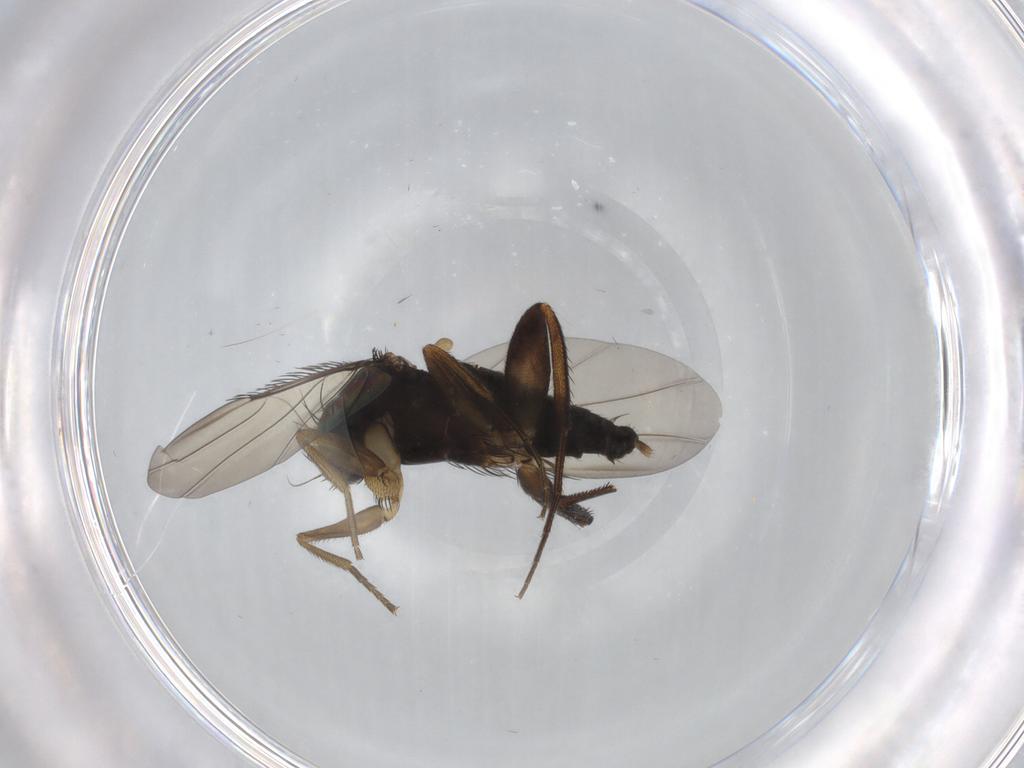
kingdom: Animalia
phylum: Arthropoda
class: Insecta
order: Diptera
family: Phoridae
